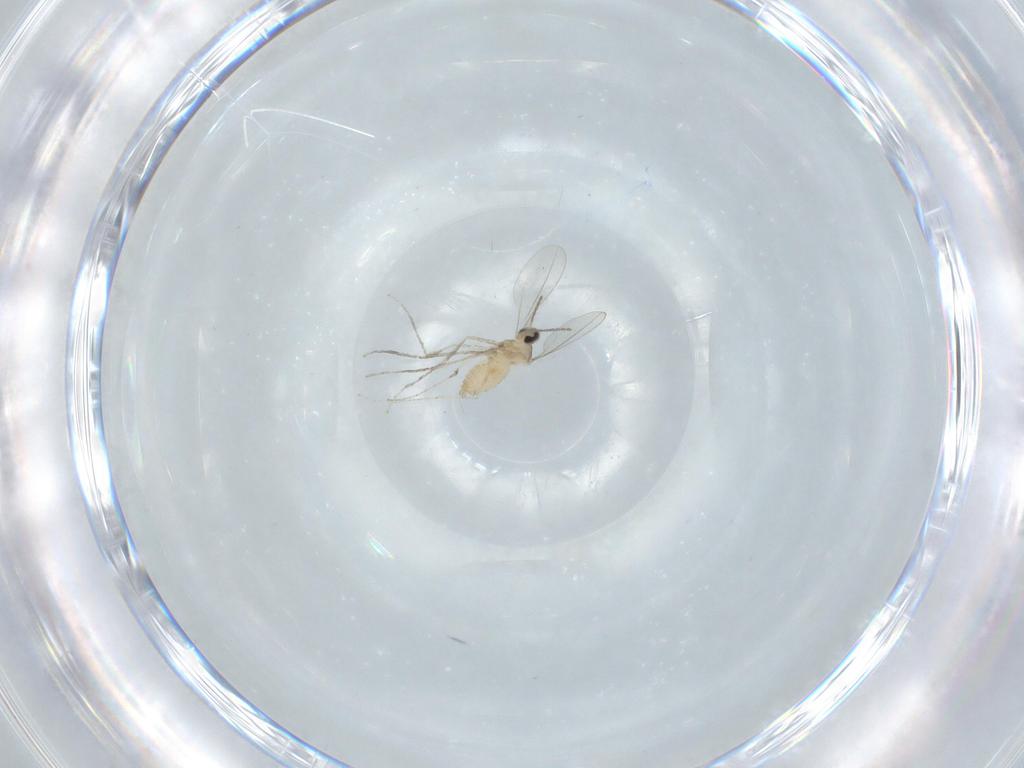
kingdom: Animalia
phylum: Arthropoda
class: Insecta
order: Diptera
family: Cecidomyiidae
